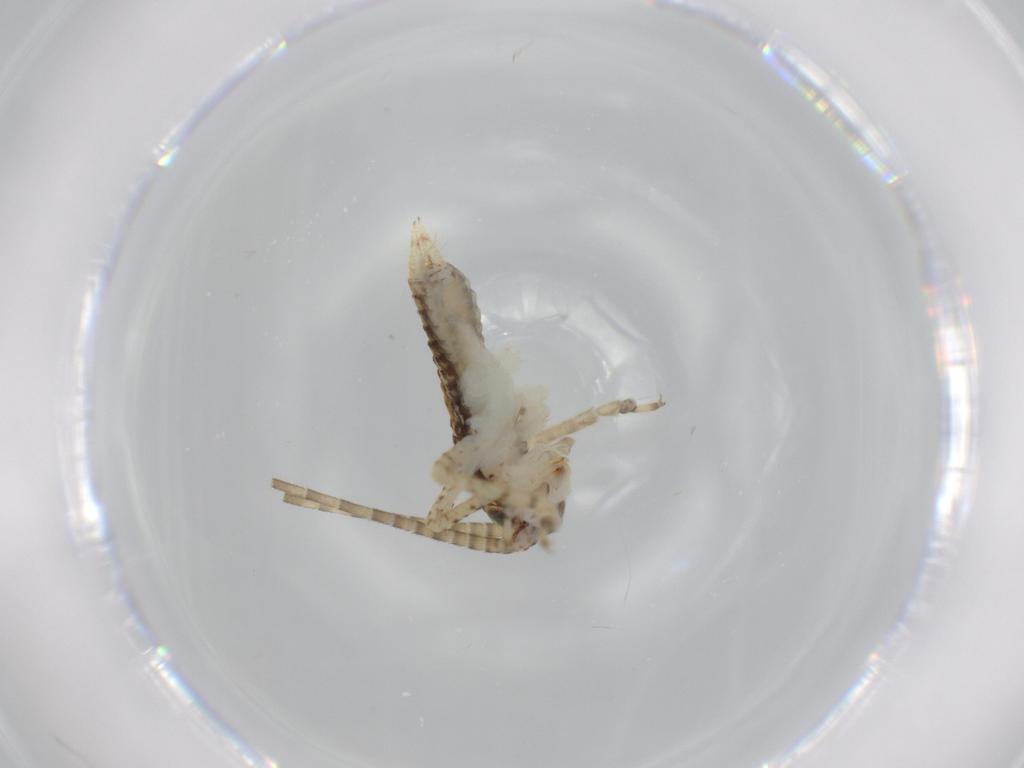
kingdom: Animalia
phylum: Arthropoda
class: Insecta
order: Orthoptera
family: Gryllidae
